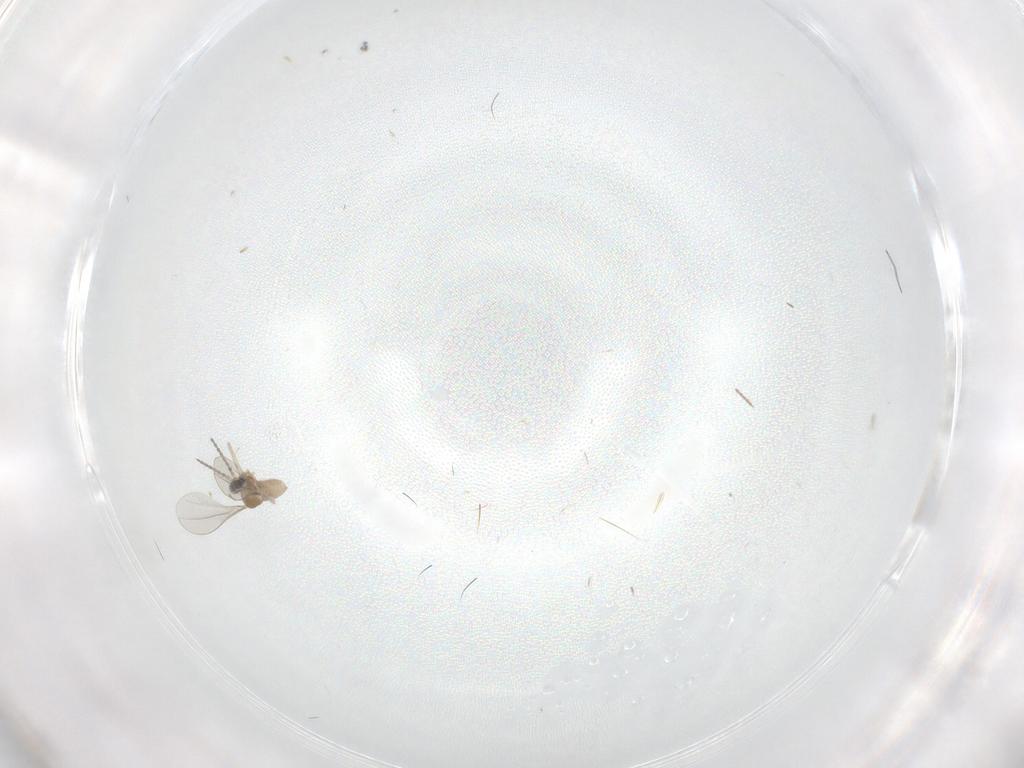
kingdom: Animalia
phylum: Arthropoda
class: Insecta
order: Diptera
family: Cecidomyiidae
